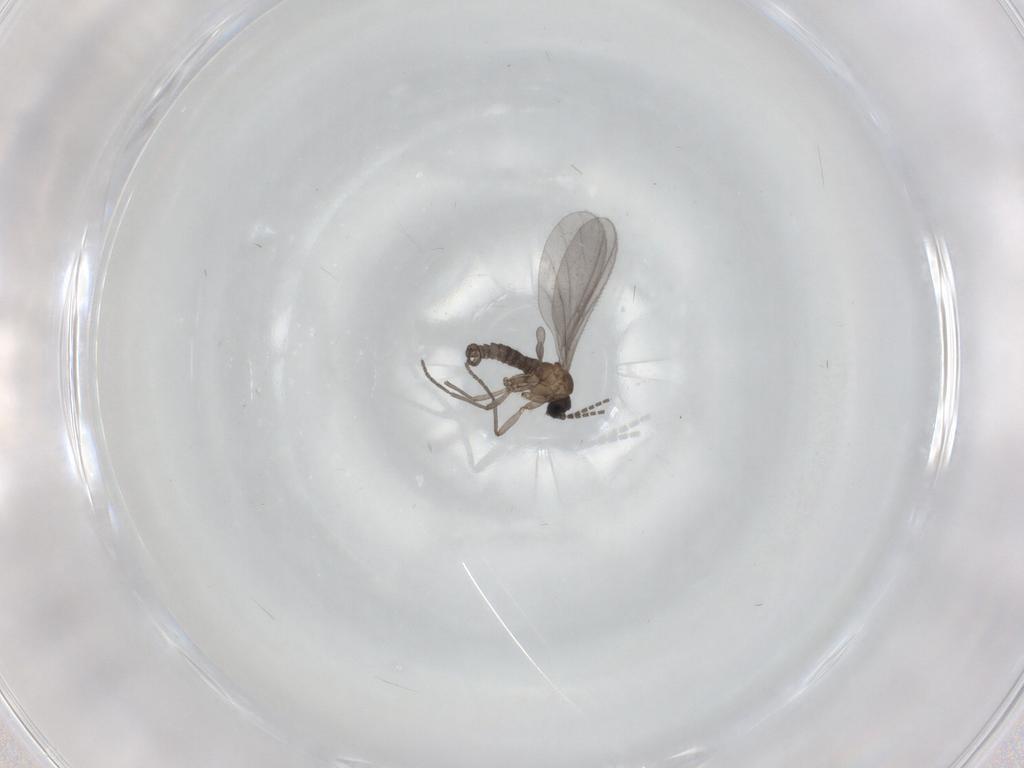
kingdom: Animalia
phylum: Arthropoda
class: Insecta
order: Diptera
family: Sciaridae
